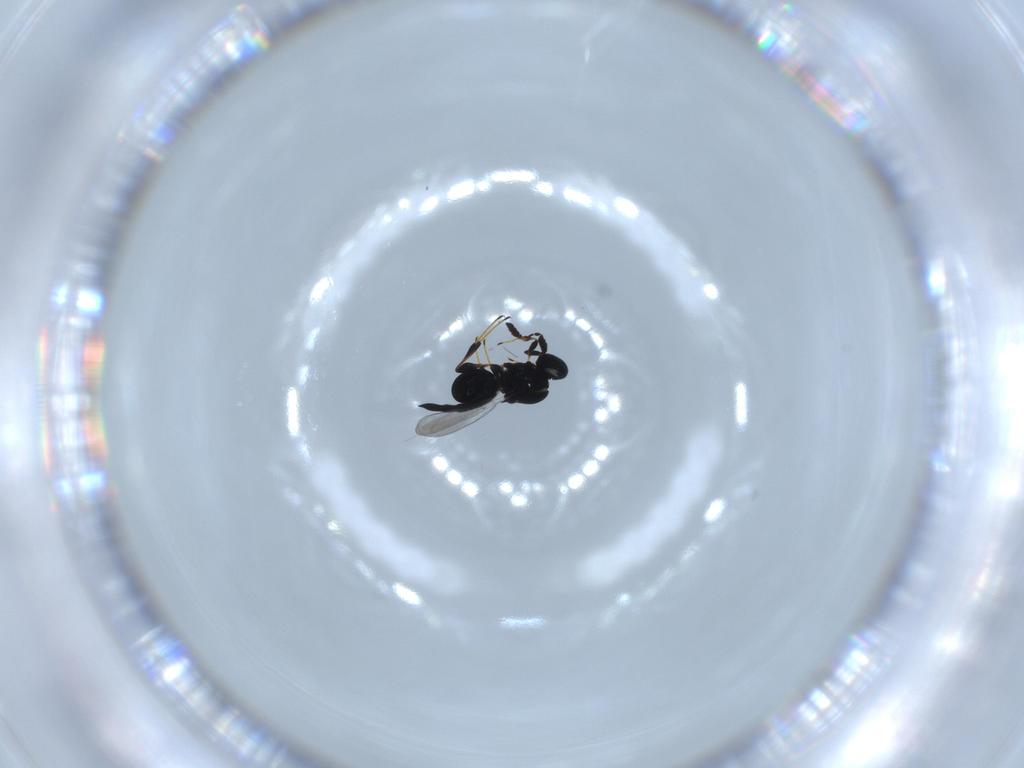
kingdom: Animalia
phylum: Arthropoda
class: Insecta
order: Hymenoptera
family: Platygastridae
